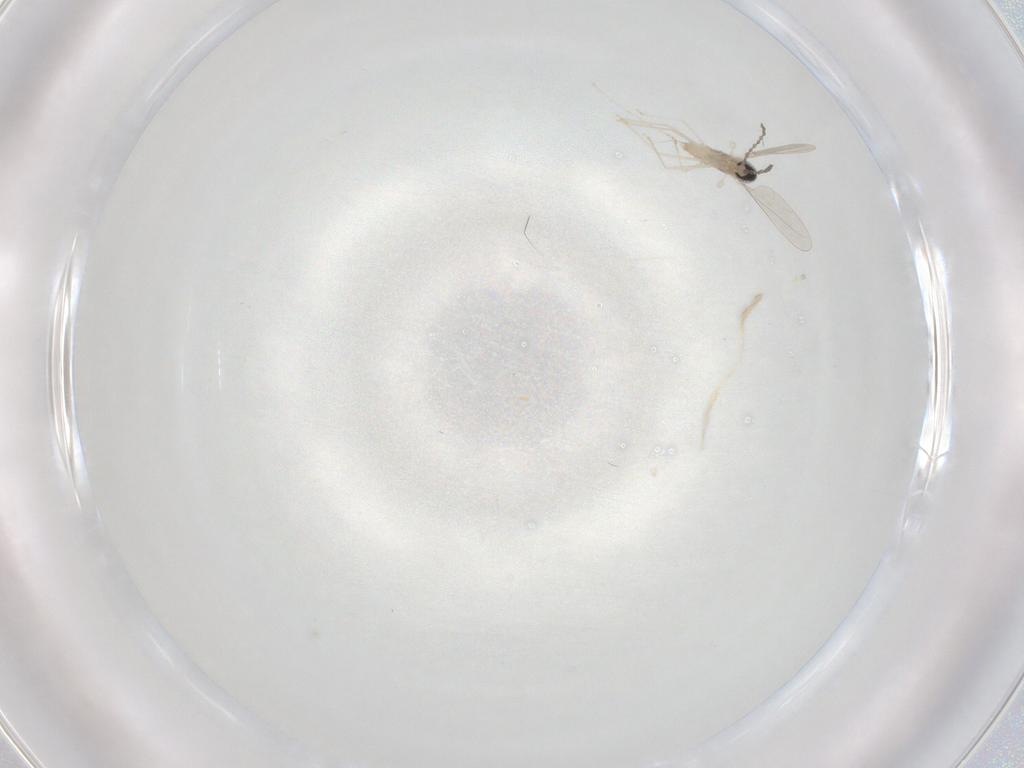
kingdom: Animalia
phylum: Arthropoda
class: Insecta
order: Diptera
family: Cecidomyiidae
